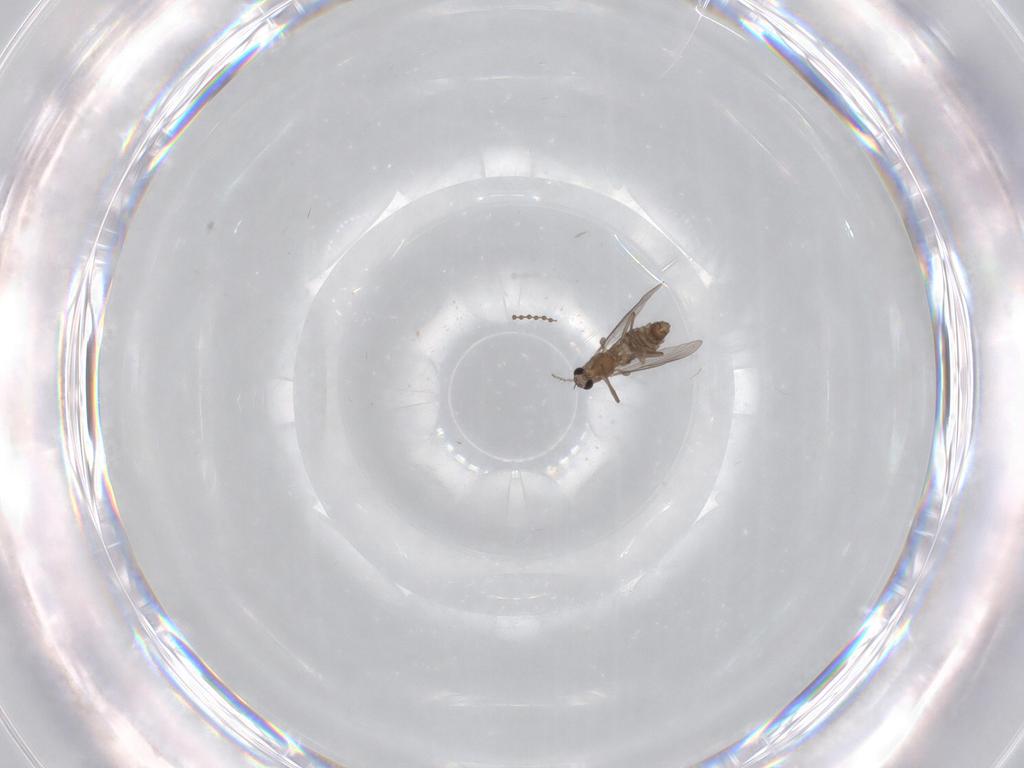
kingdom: Animalia
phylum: Arthropoda
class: Insecta
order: Diptera
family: Chironomidae
